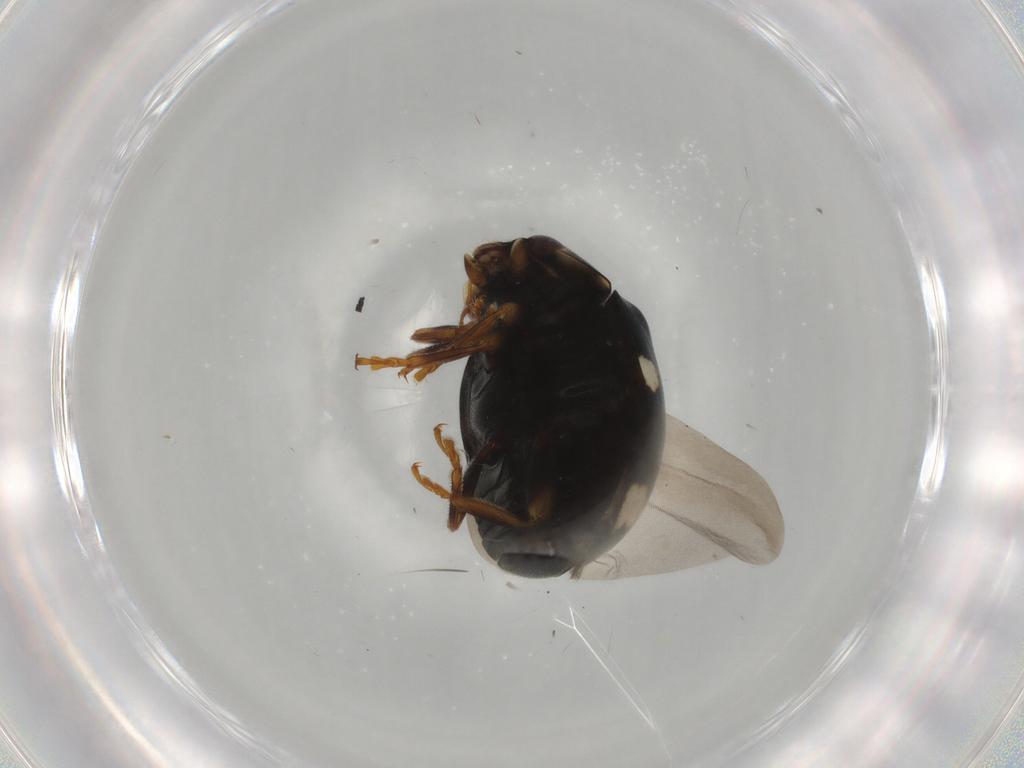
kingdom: Animalia
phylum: Arthropoda
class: Insecta
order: Coleoptera
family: Coccinellidae
